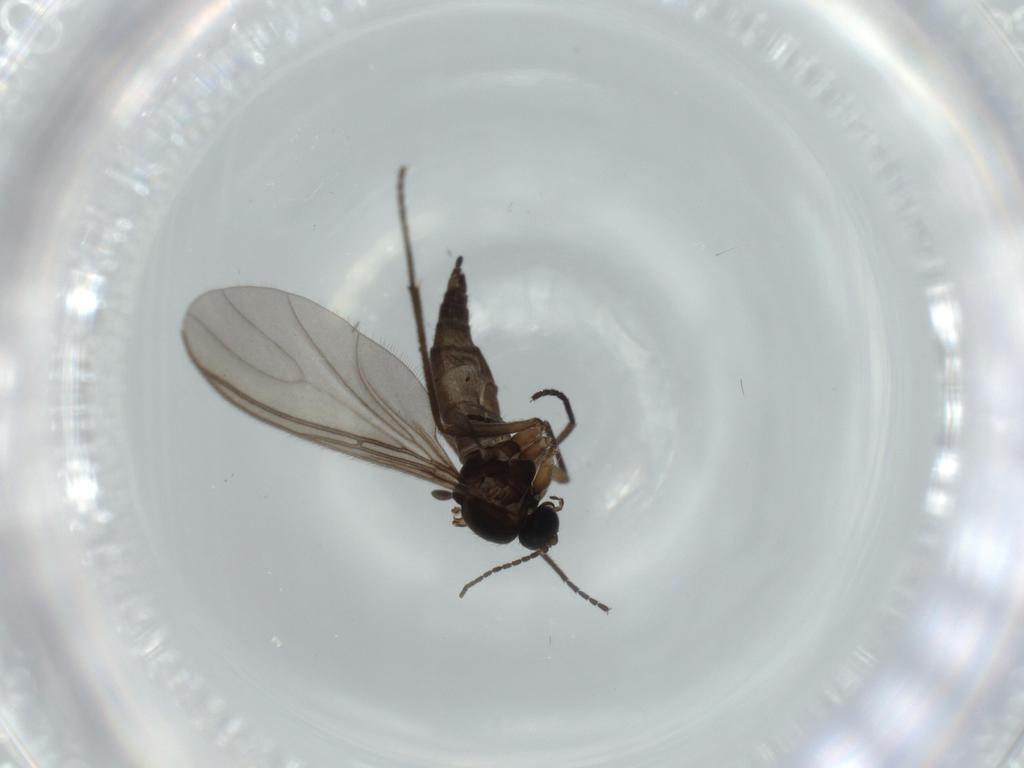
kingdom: Animalia
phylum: Arthropoda
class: Insecta
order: Diptera
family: Sciaridae
